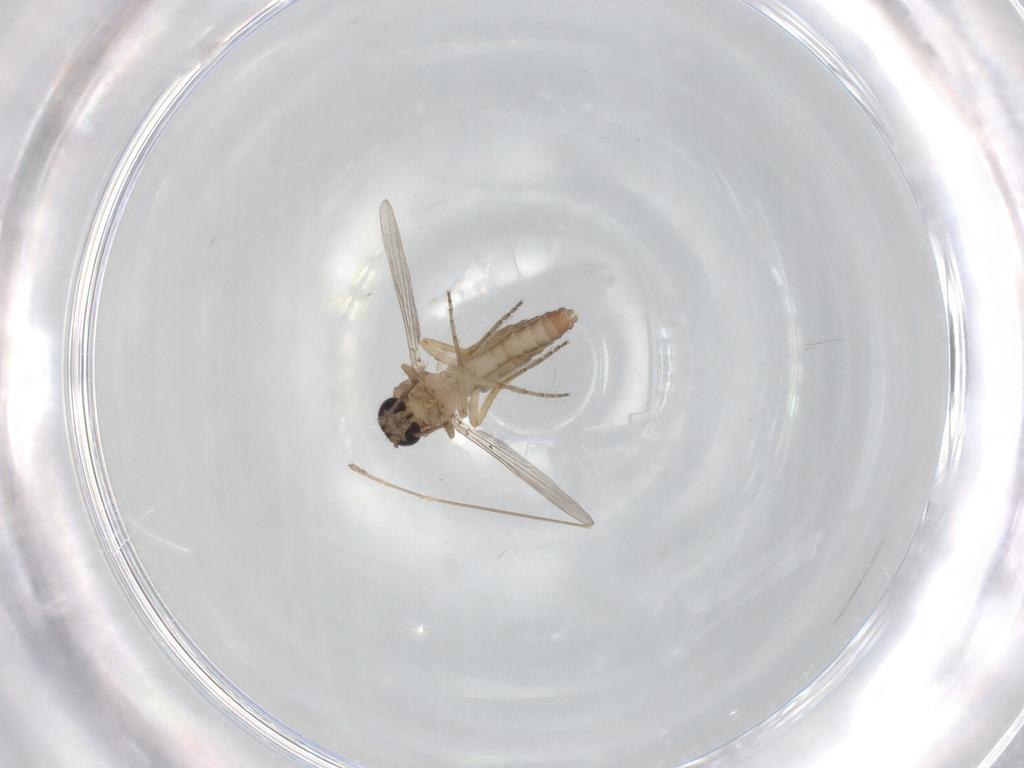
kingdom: Animalia
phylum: Arthropoda
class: Insecta
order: Diptera
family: Ceratopogonidae
